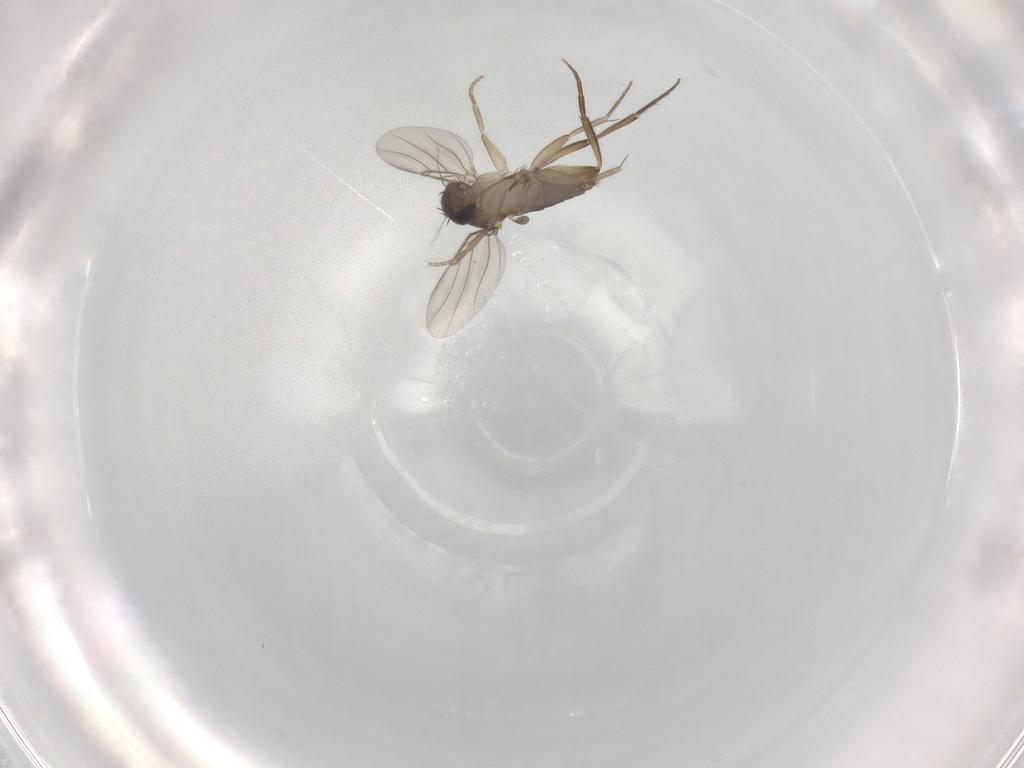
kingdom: Animalia
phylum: Arthropoda
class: Insecta
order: Diptera
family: Phoridae
